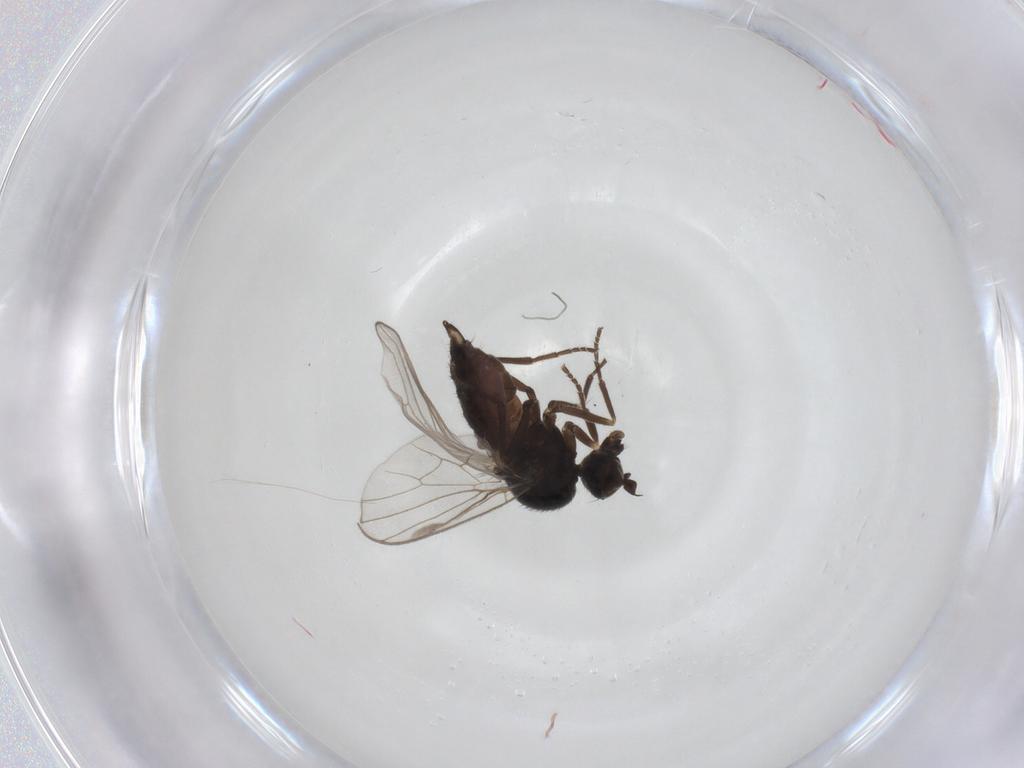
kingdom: Animalia
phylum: Arthropoda
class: Insecta
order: Diptera
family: Hybotidae
